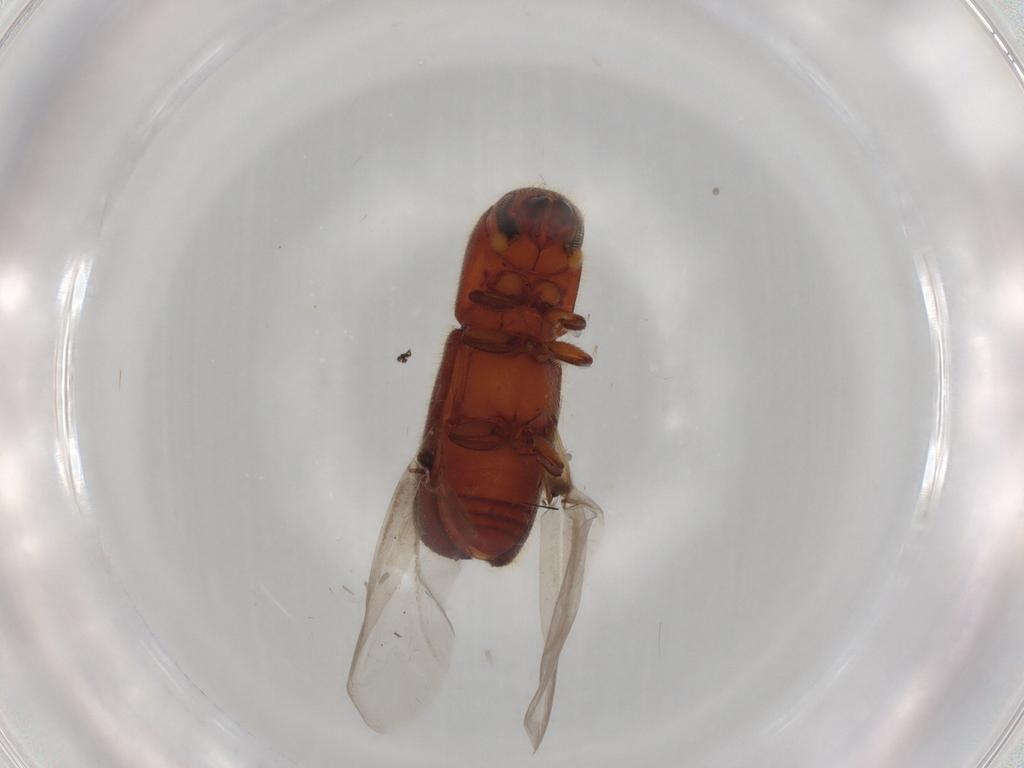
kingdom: Animalia
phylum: Arthropoda
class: Insecta
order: Coleoptera
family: Curculionidae
